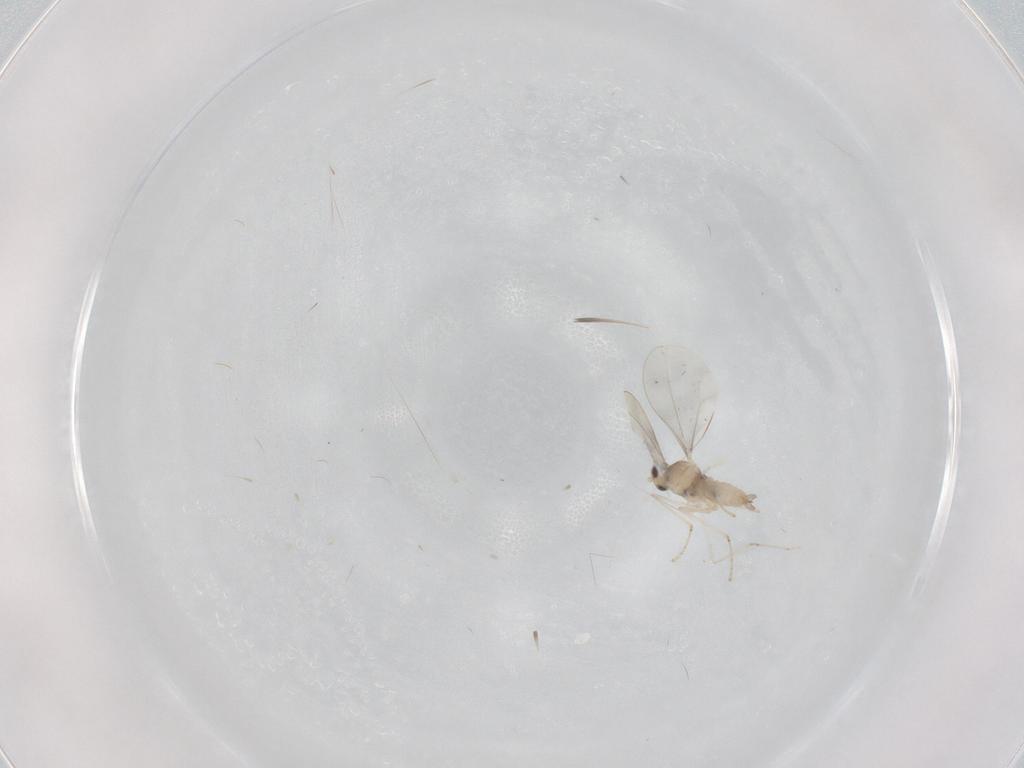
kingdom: Animalia
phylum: Arthropoda
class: Insecta
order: Diptera
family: Cecidomyiidae
